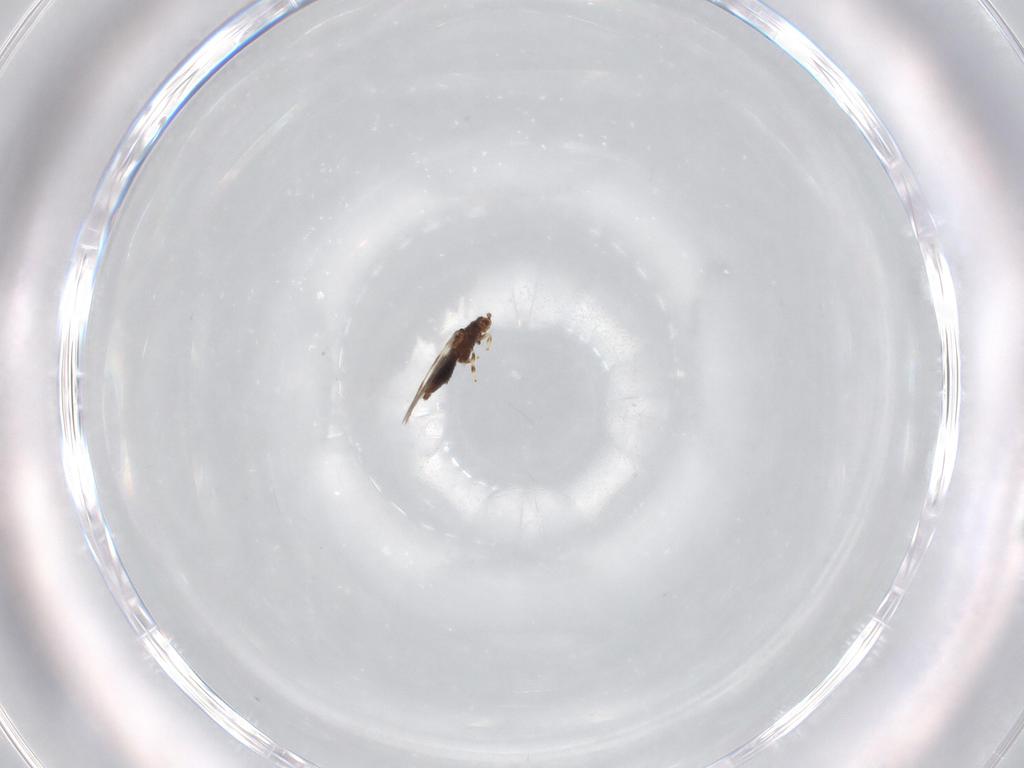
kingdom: Animalia
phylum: Arthropoda
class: Insecta
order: Thysanoptera
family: Thripidae
